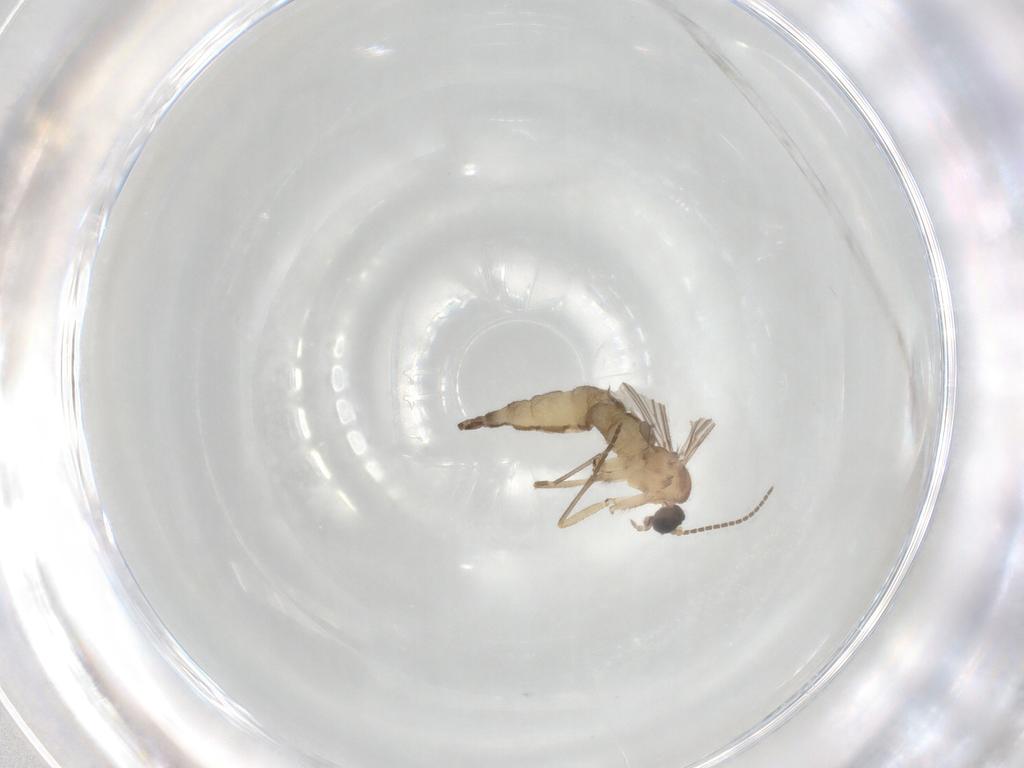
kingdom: Animalia
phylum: Arthropoda
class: Insecta
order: Diptera
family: Sciaridae
